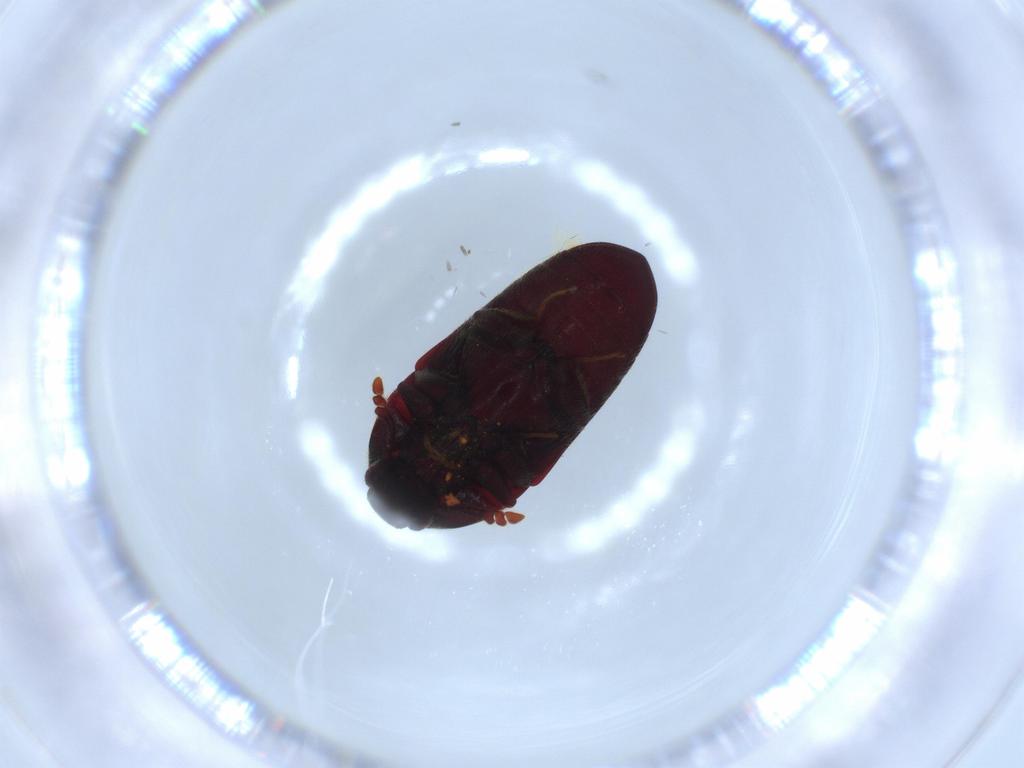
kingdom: Animalia
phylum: Arthropoda
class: Insecta
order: Coleoptera
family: Throscidae
